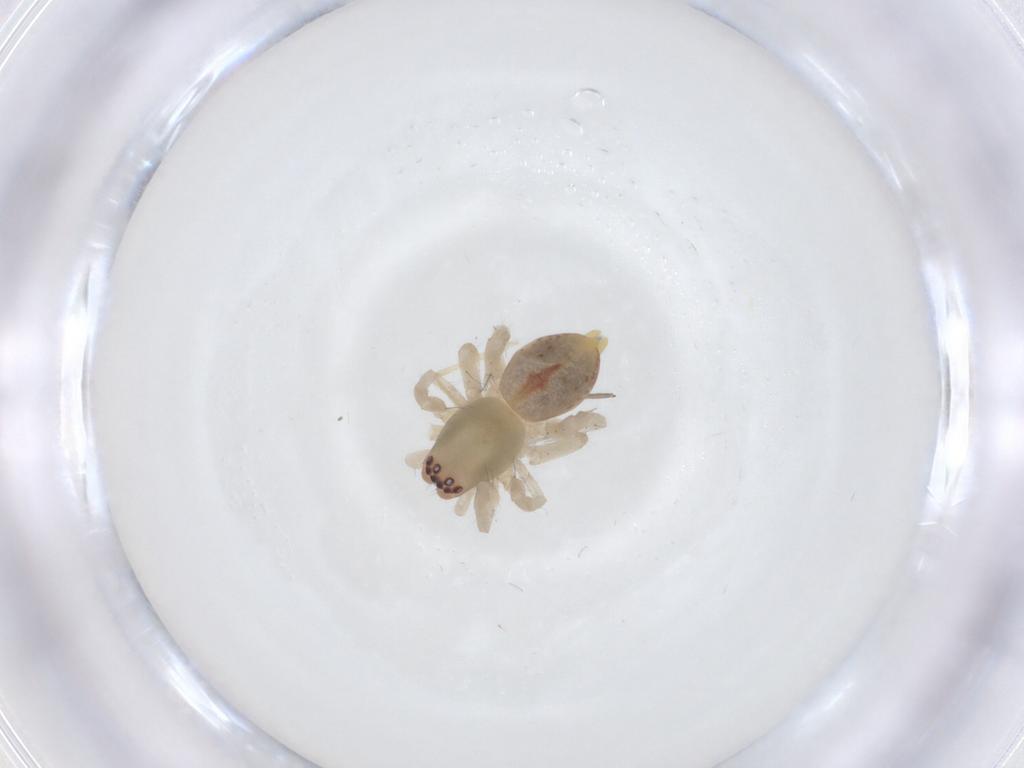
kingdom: Animalia
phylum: Arthropoda
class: Arachnida
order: Araneae
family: Clubionidae
